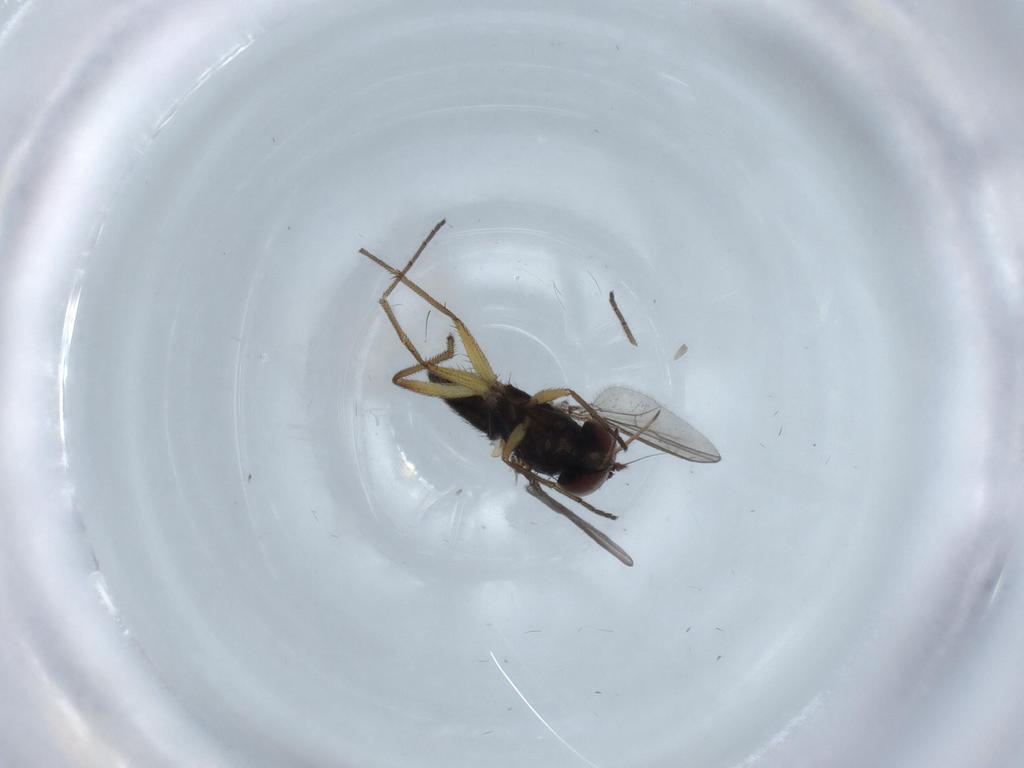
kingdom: Animalia
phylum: Arthropoda
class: Insecta
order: Diptera
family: Dolichopodidae
